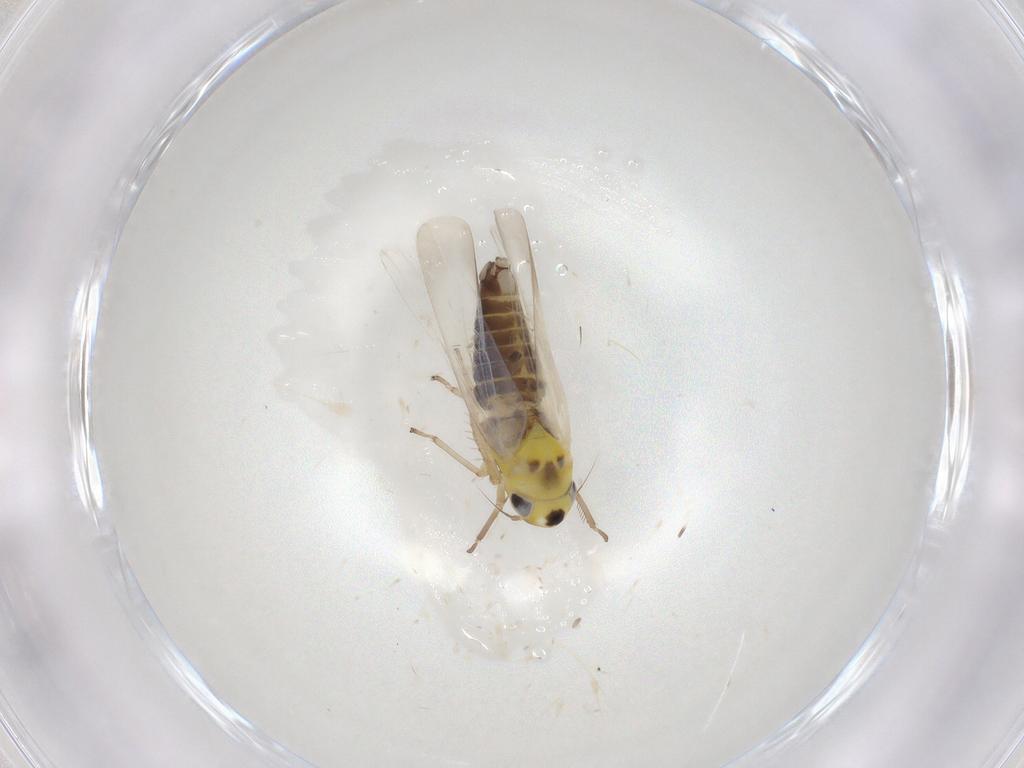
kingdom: Animalia
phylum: Arthropoda
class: Insecta
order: Hemiptera
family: Cicadellidae
